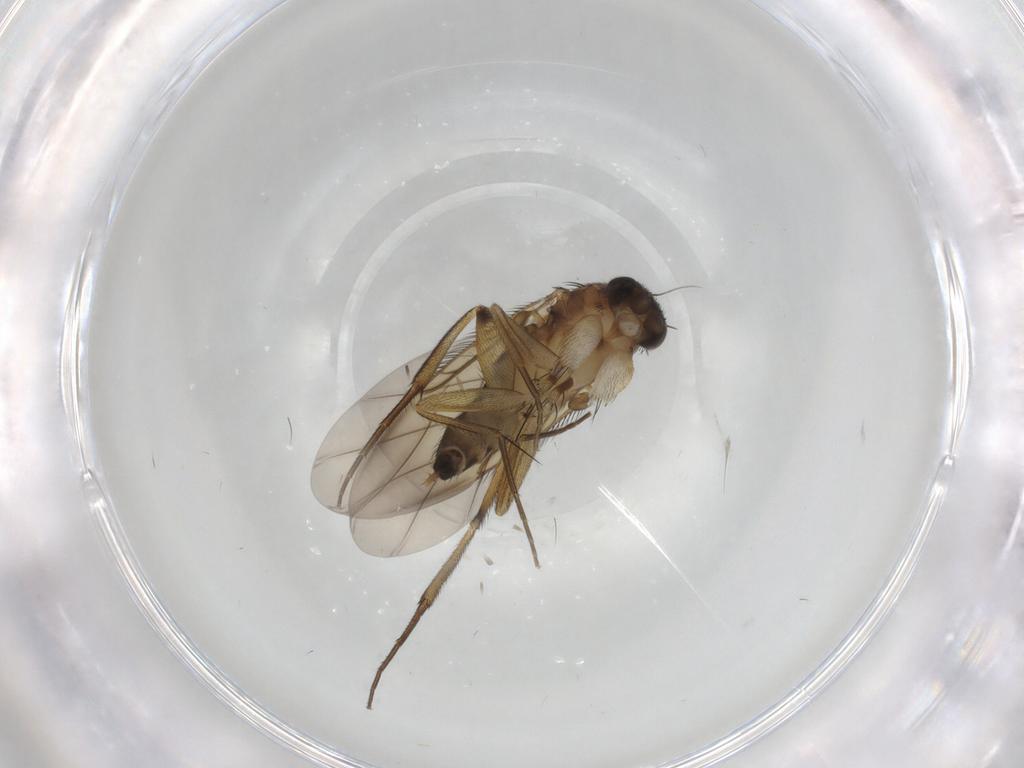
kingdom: Animalia
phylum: Arthropoda
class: Insecta
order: Diptera
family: Phoridae
